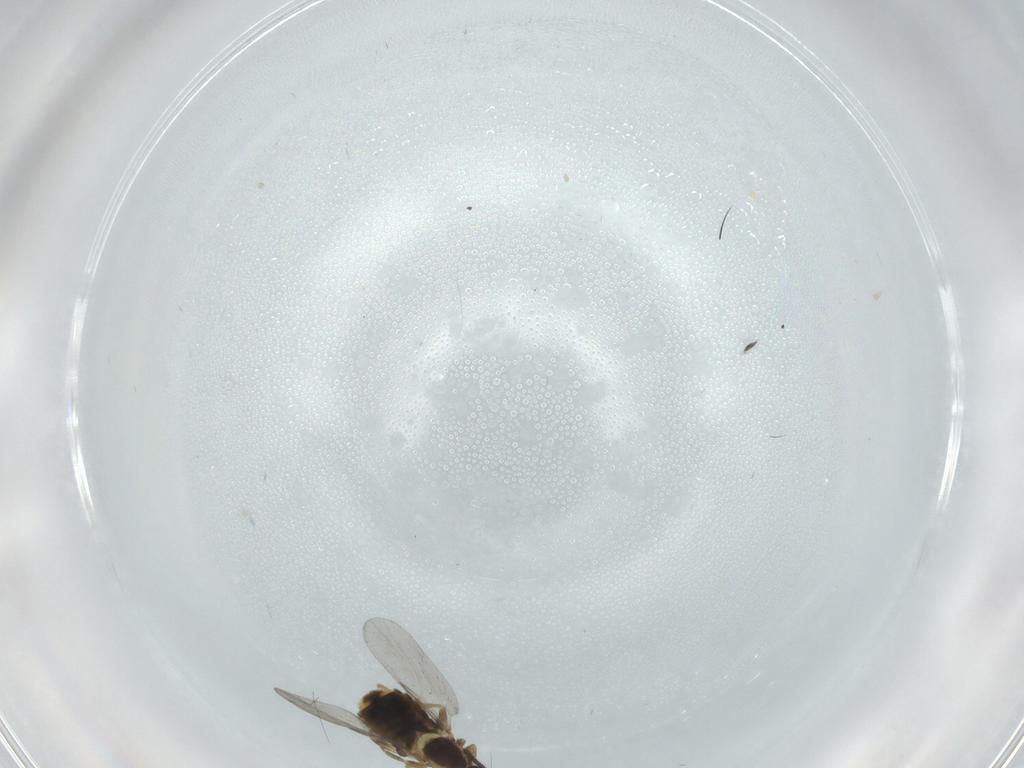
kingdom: Animalia
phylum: Arthropoda
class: Insecta
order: Diptera
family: Scatopsidae
